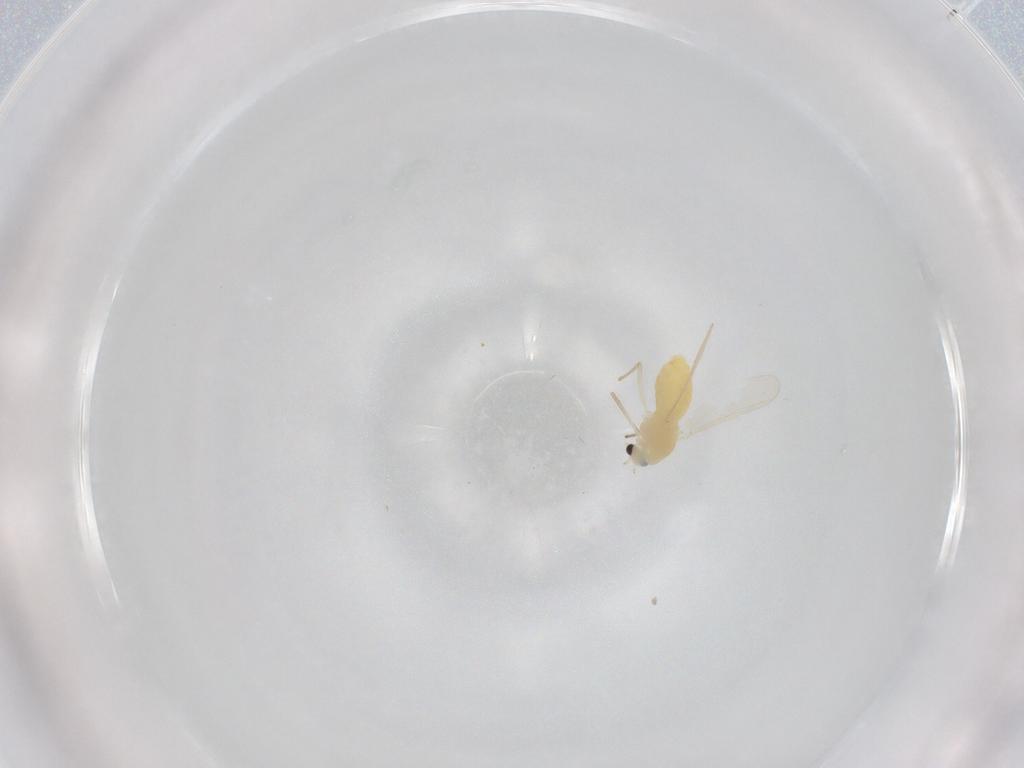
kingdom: Animalia
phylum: Arthropoda
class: Insecta
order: Diptera
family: Chironomidae
